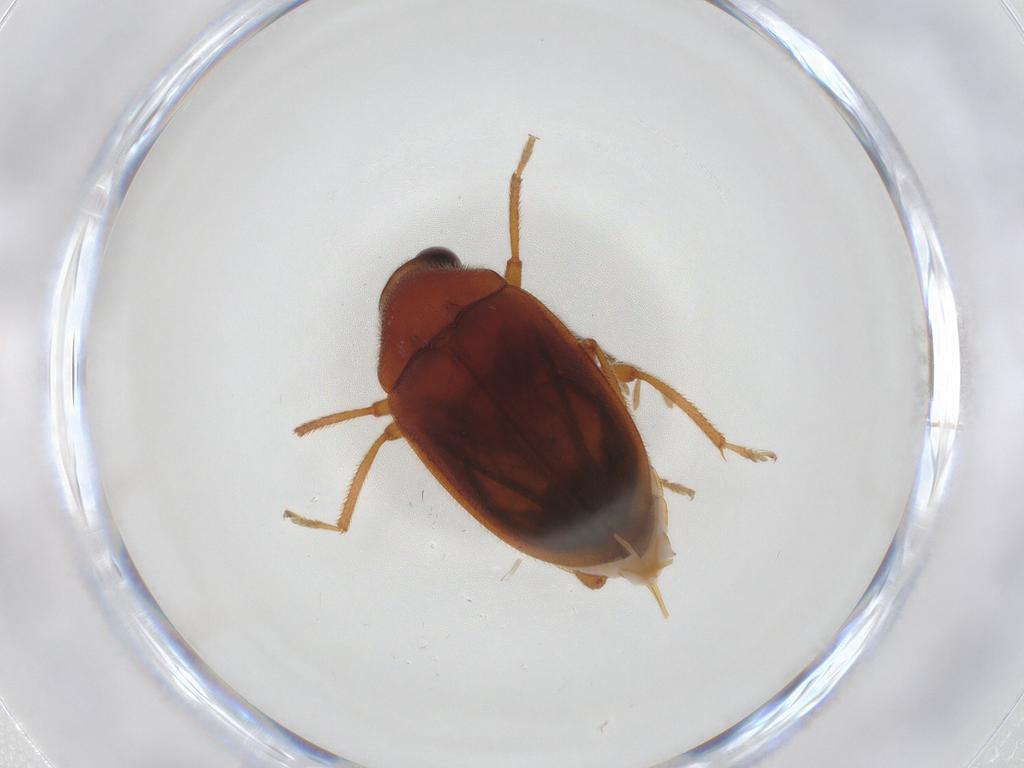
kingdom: Animalia
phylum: Arthropoda
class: Insecta
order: Coleoptera
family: Ptilodactylidae
